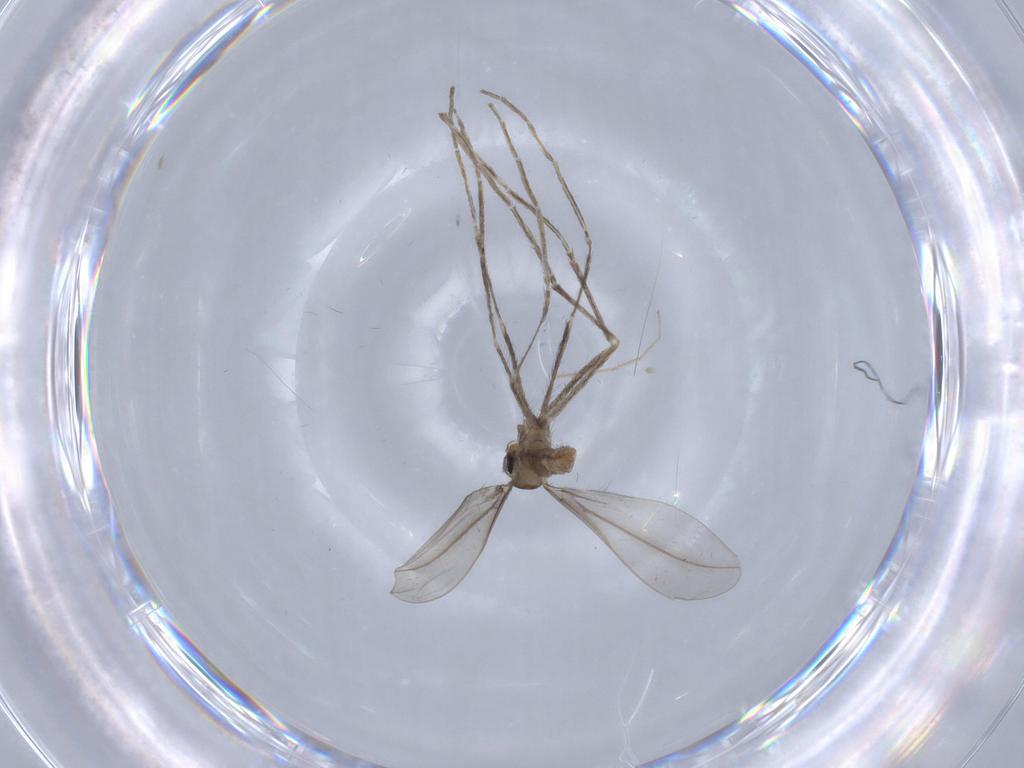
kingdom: Animalia
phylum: Arthropoda
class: Insecta
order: Diptera
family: Cecidomyiidae
